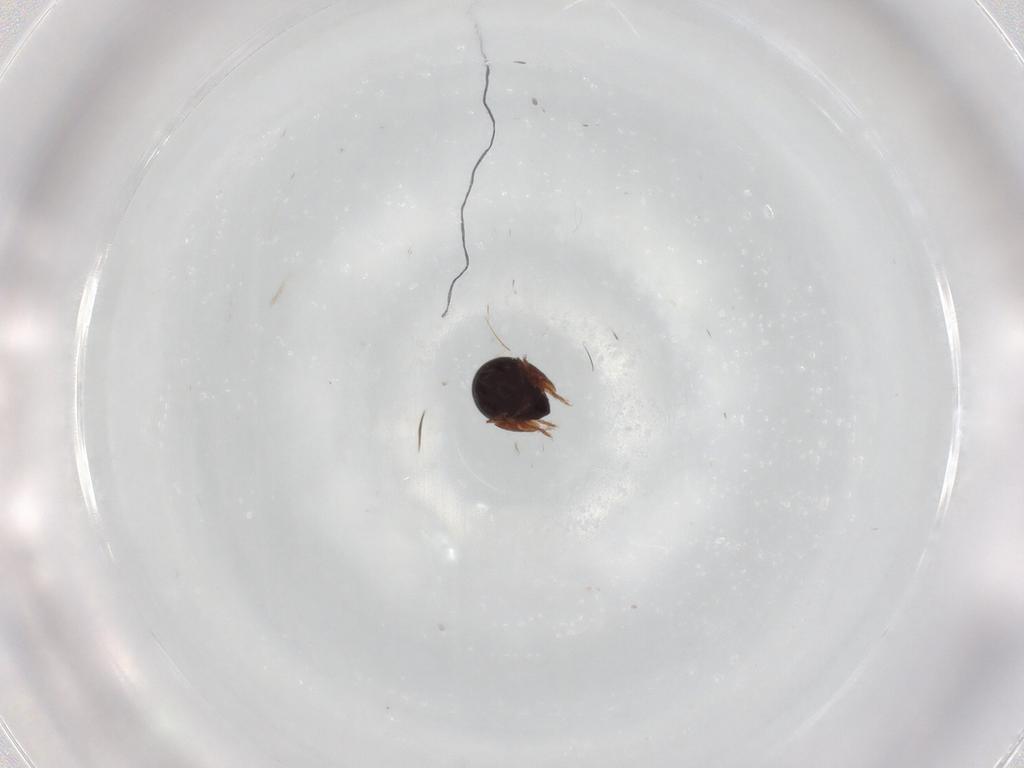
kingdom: Animalia
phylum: Arthropoda
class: Arachnida
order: Sarcoptiformes
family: Ceratozetidae
